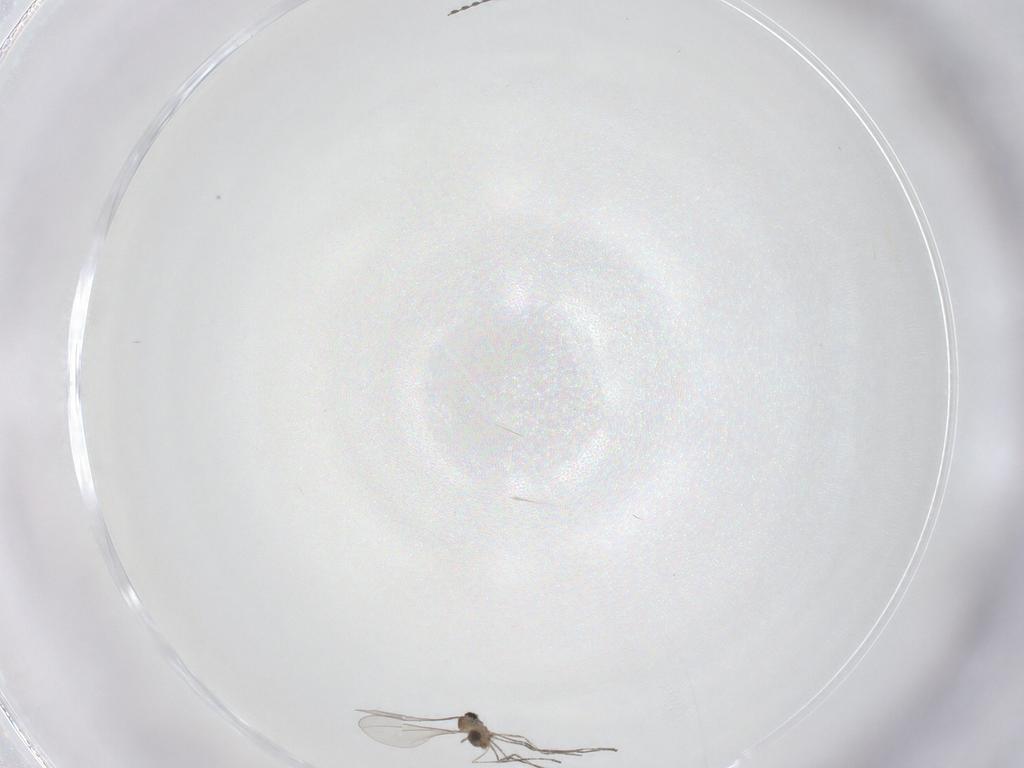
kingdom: Animalia
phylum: Arthropoda
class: Insecta
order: Diptera
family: Cecidomyiidae
